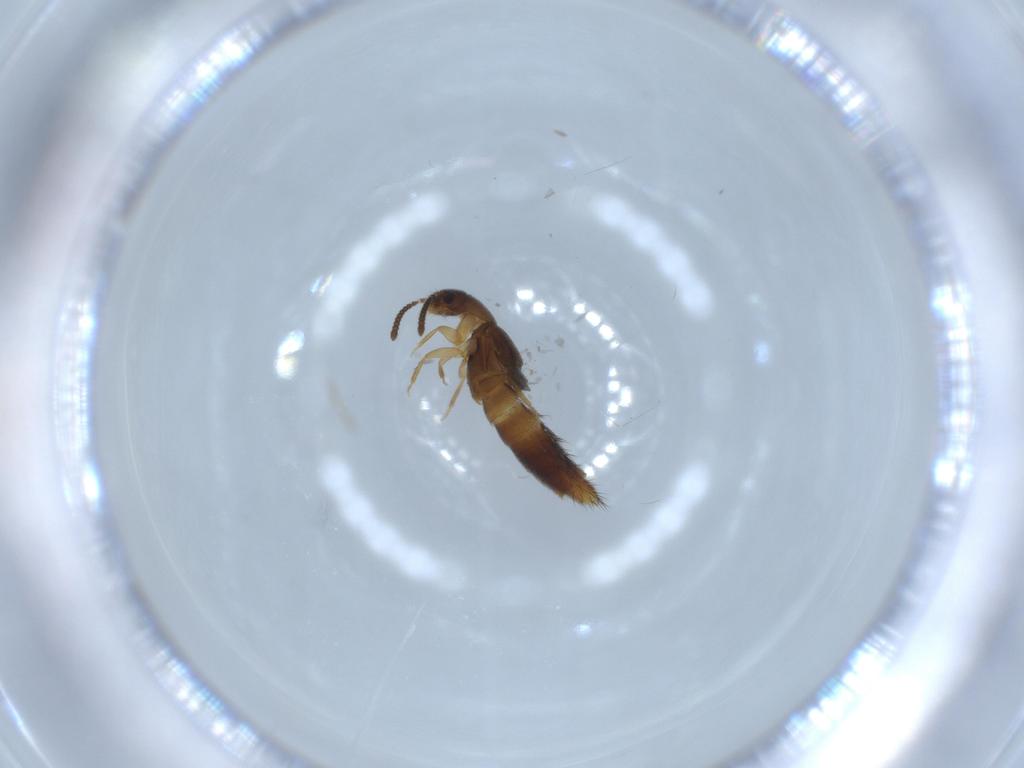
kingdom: Animalia
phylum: Arthropoda
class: Insecta
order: Coleoptera
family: Staphylinidae
